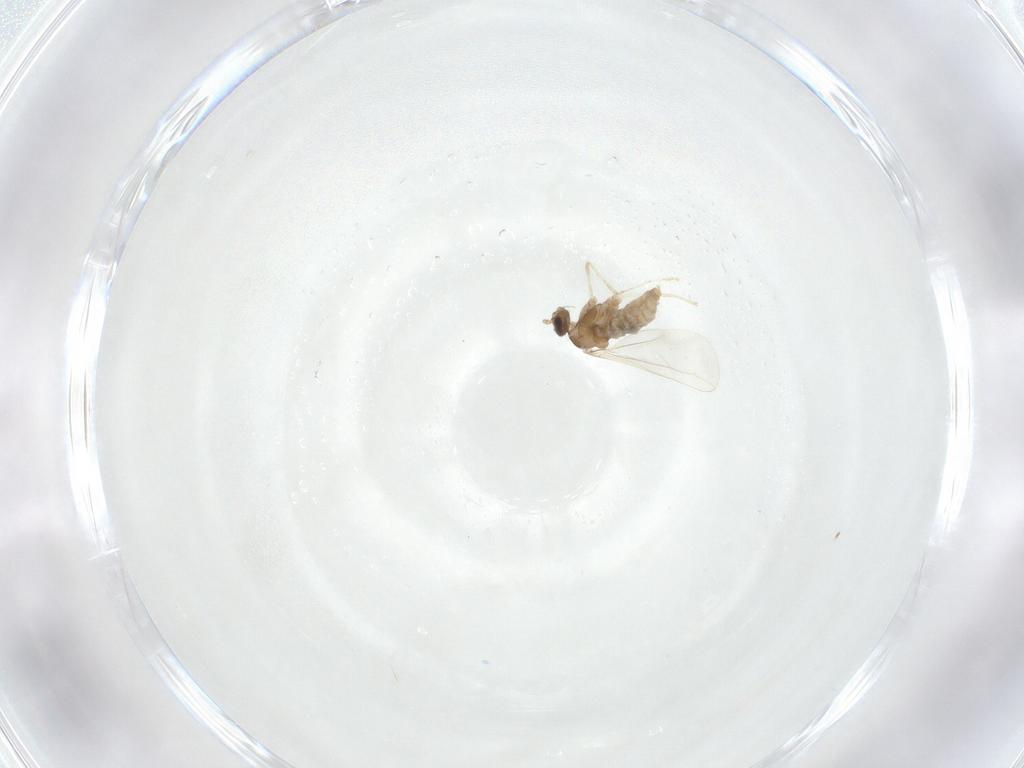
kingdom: Animalia
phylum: Arthropoda
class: Insecta
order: Diptera
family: Cecidomyiidae
